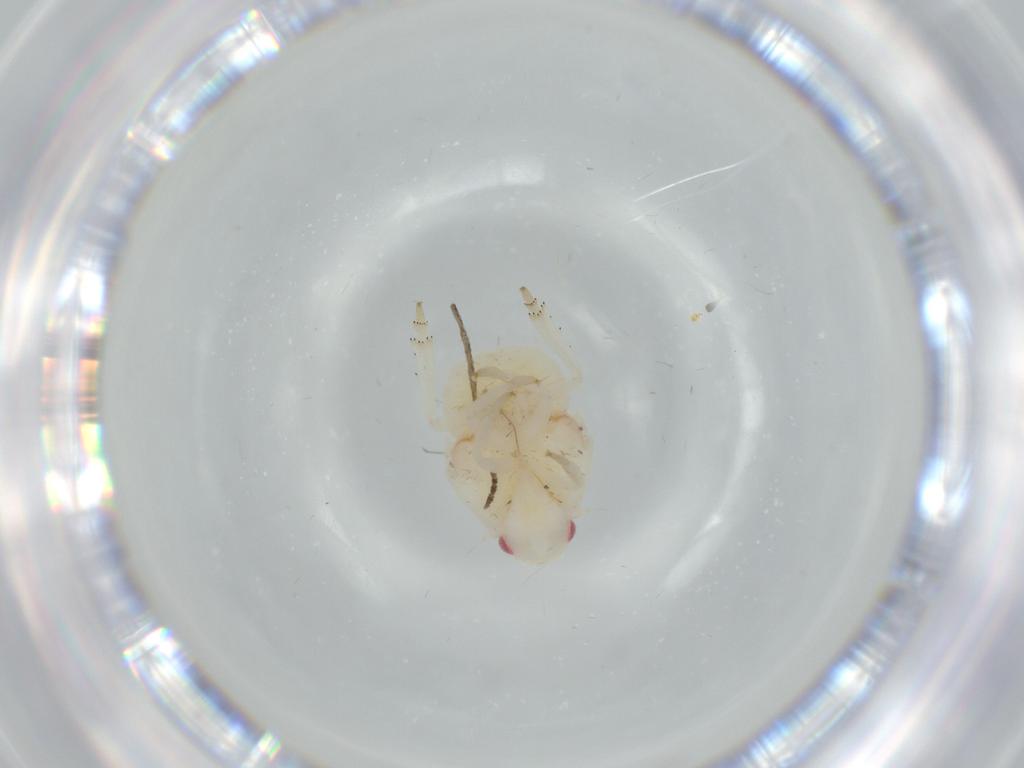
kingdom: Animalia
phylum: Arthropoda
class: Insecta
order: Hemiptera
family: Flatidae
